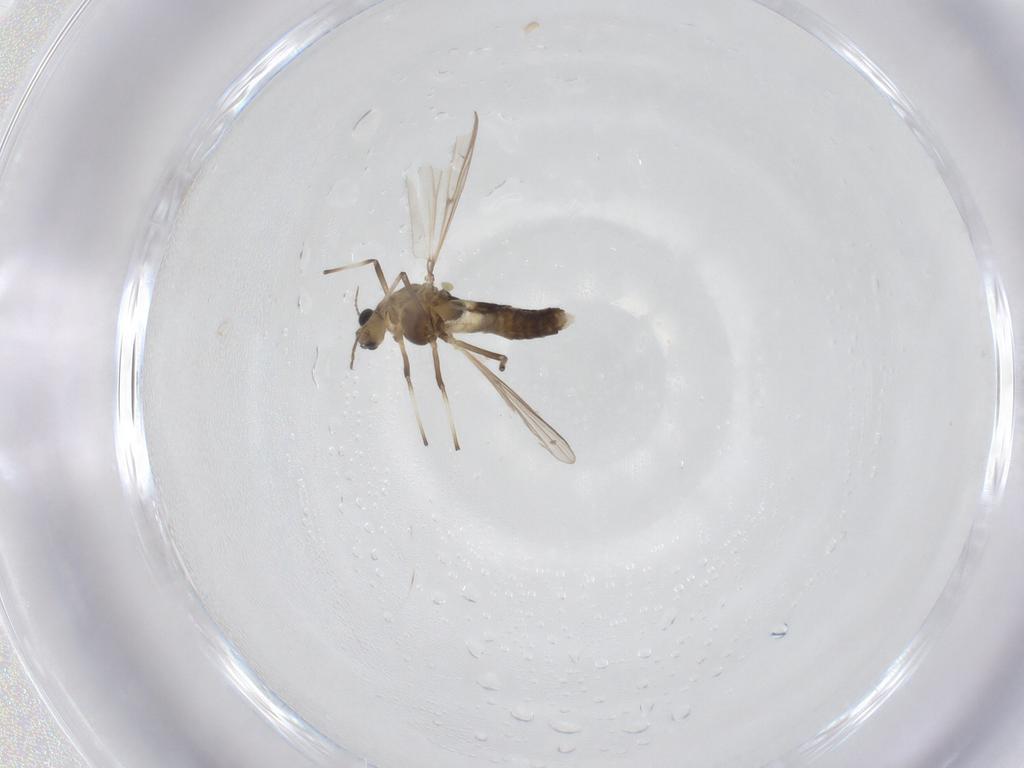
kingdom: Animalia
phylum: Arthropoda
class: Insecta
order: Diptera
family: Chironomidae
